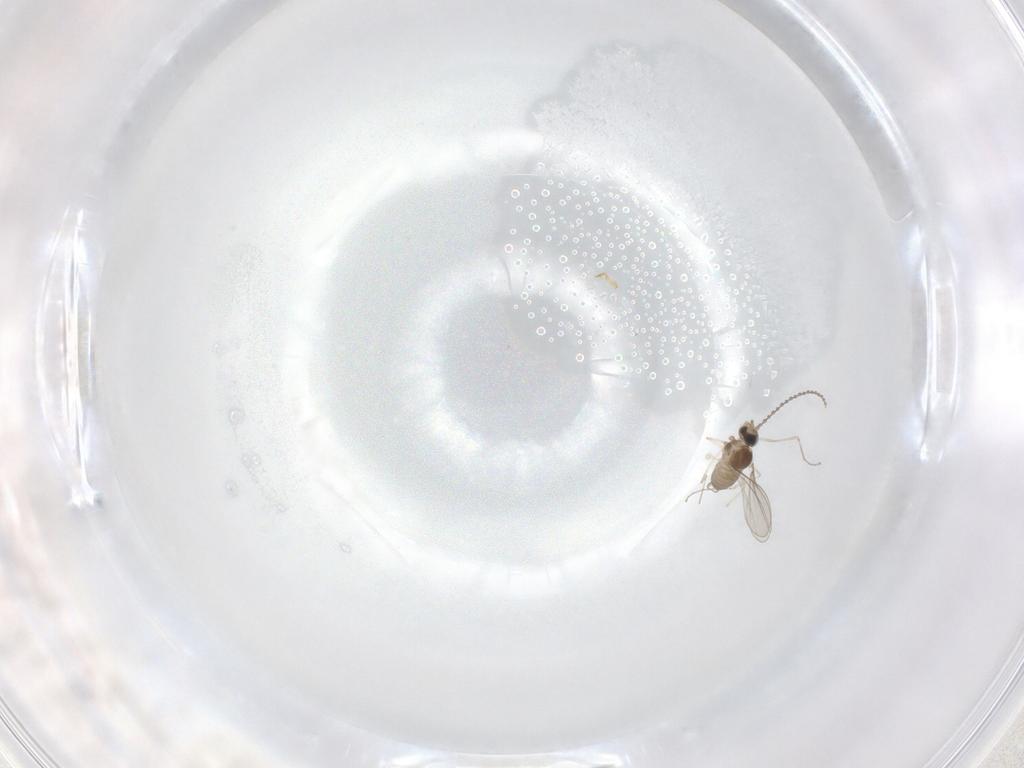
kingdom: Animalia
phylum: Arthropoda
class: Insecta
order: Diptera
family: Cecidomyiidae
